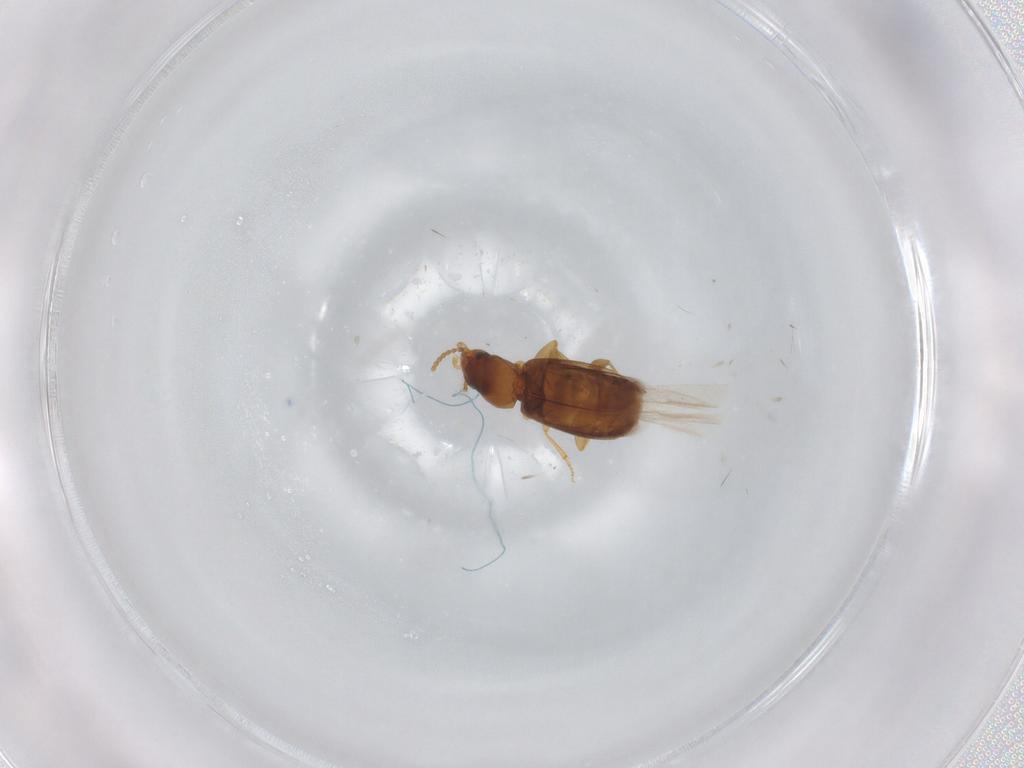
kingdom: Animalia
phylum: Arthropoda
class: Insecta
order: Coleoptera
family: Carabidae
